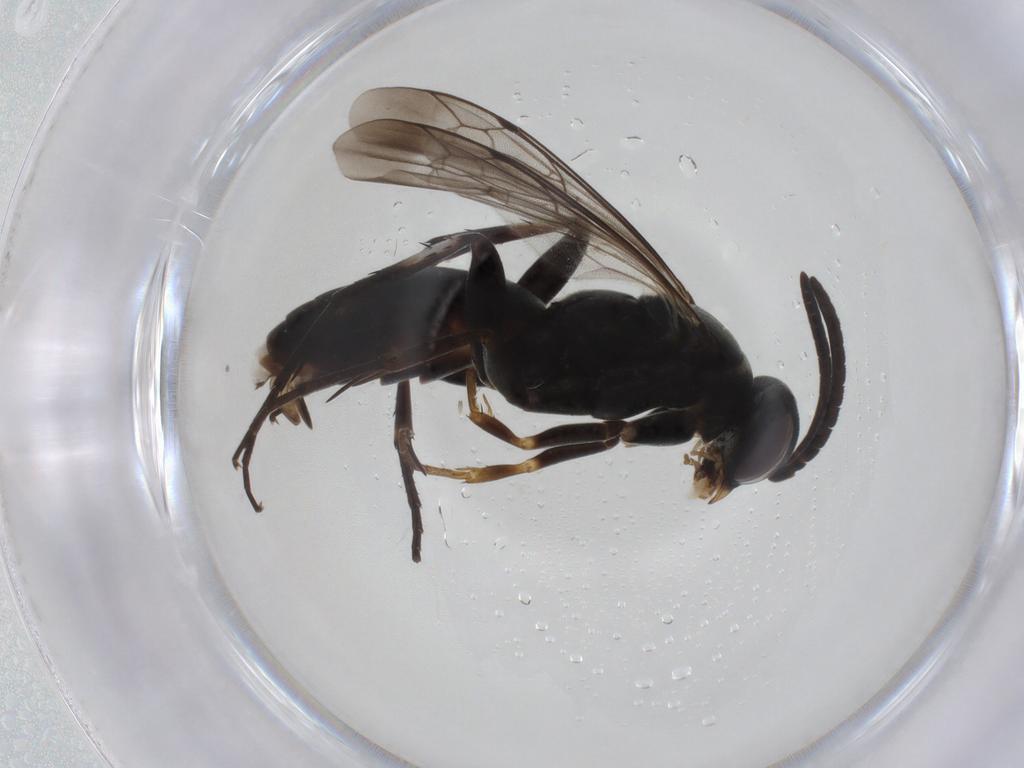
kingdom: Animalia
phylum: Arthropoda
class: Insecta
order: Hymenoptera
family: Pompilidae
